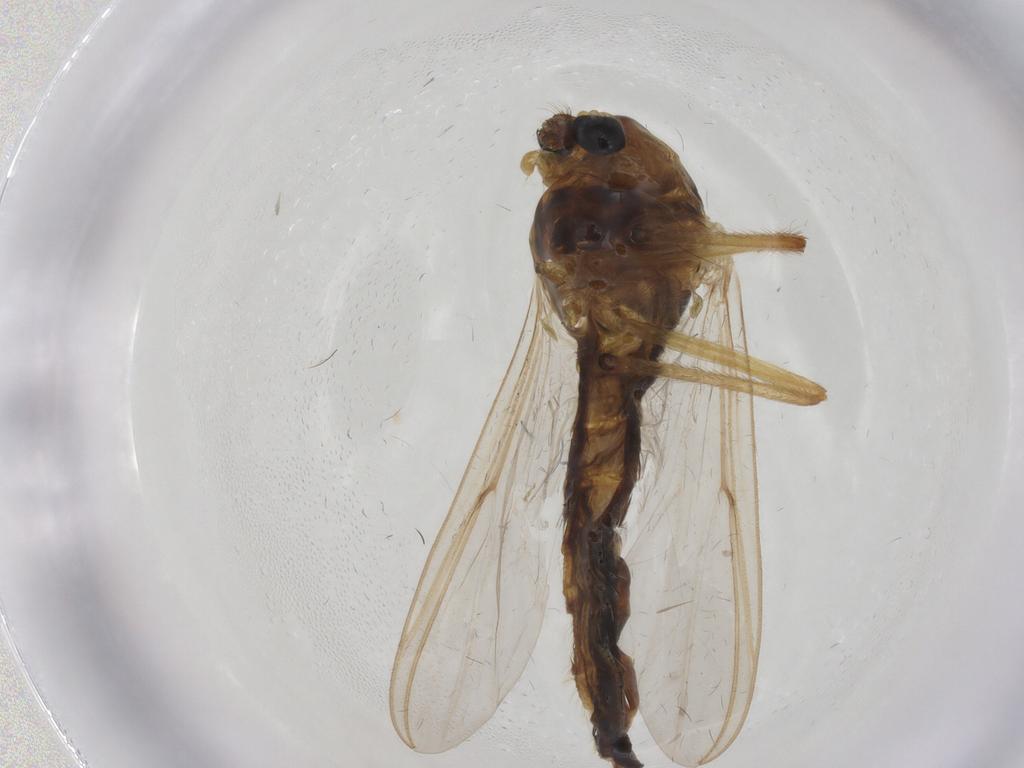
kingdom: Animalia
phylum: Arthropoda
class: Insecta
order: Diptera
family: Chironomidae
